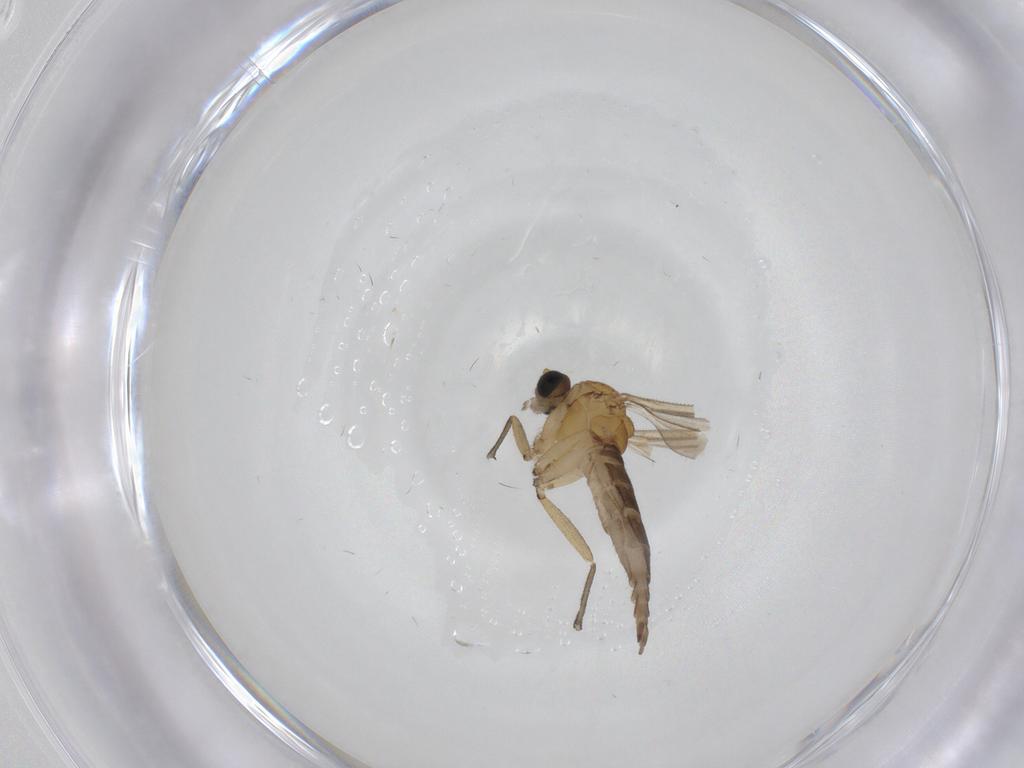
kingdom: Animalia
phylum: Arthropoda
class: Insecta
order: Diptera
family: Sciaridae
